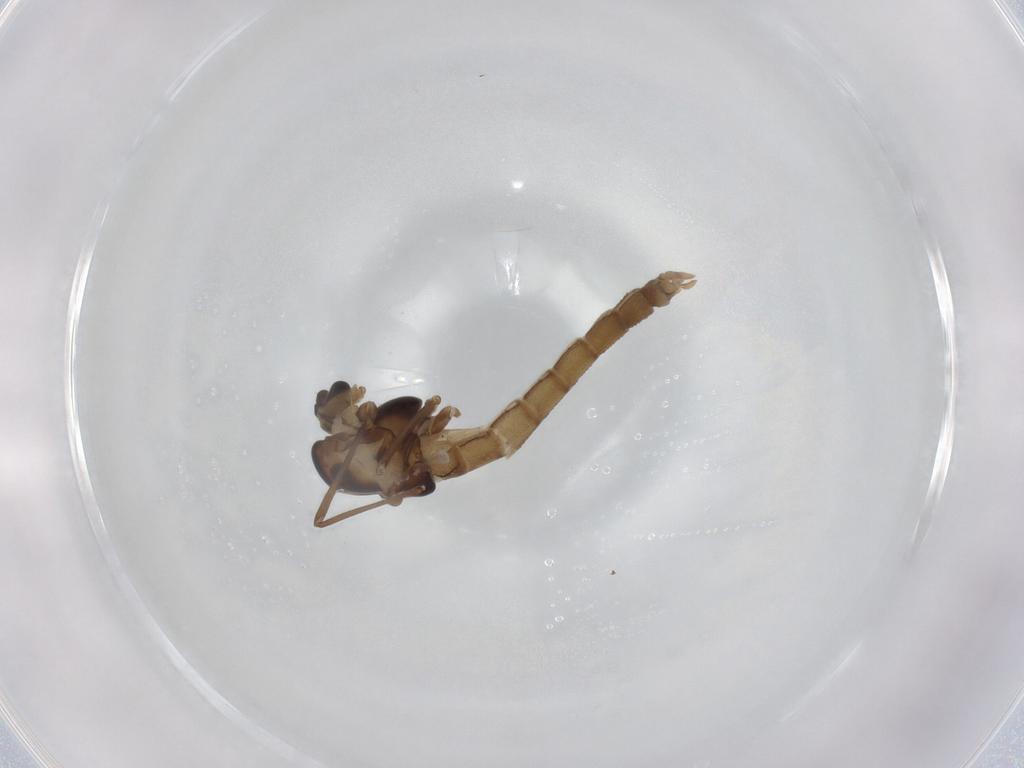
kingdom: Animalia
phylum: Arthropoda
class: Insecta
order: Diptera
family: Chironomidae
